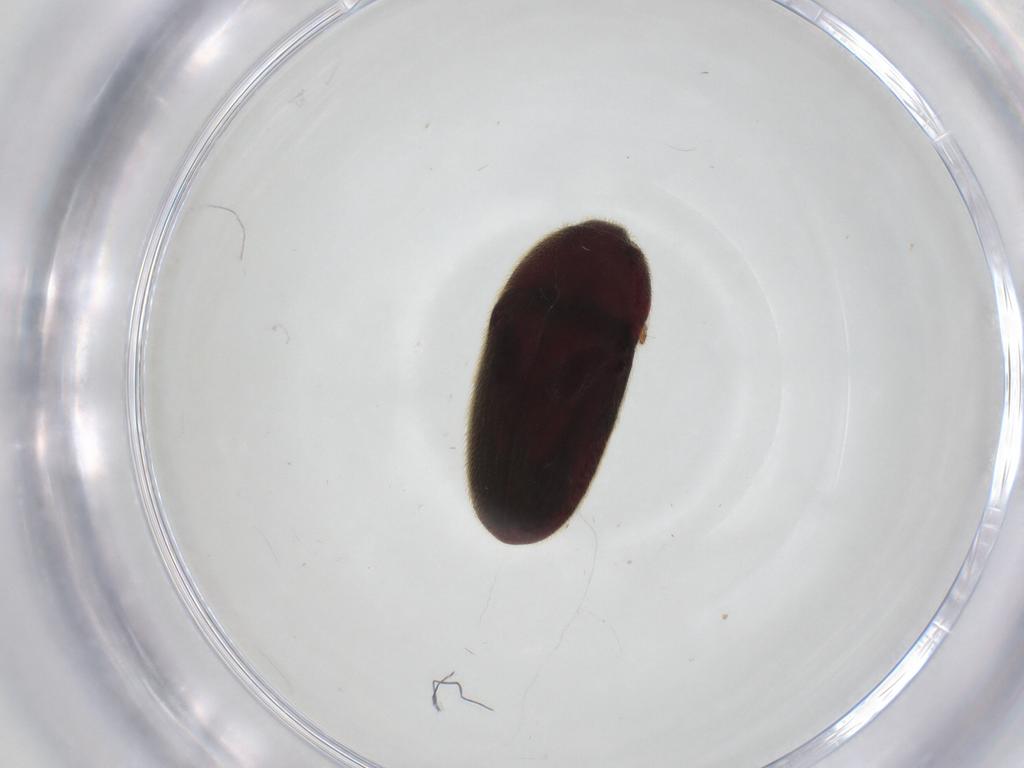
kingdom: Animalia
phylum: Arthropoda
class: Insecta
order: Coleoptera
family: Throscidae
